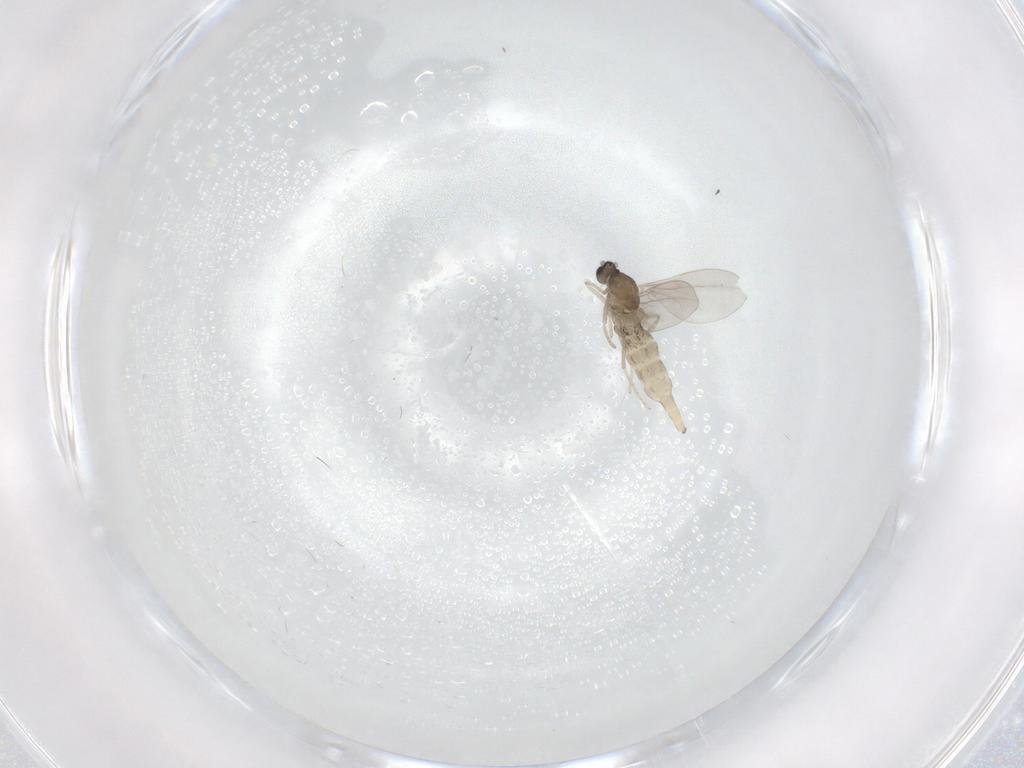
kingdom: Animalia
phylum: Arthropoda
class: Insecta
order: Diptera
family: Cecidomyiidae
